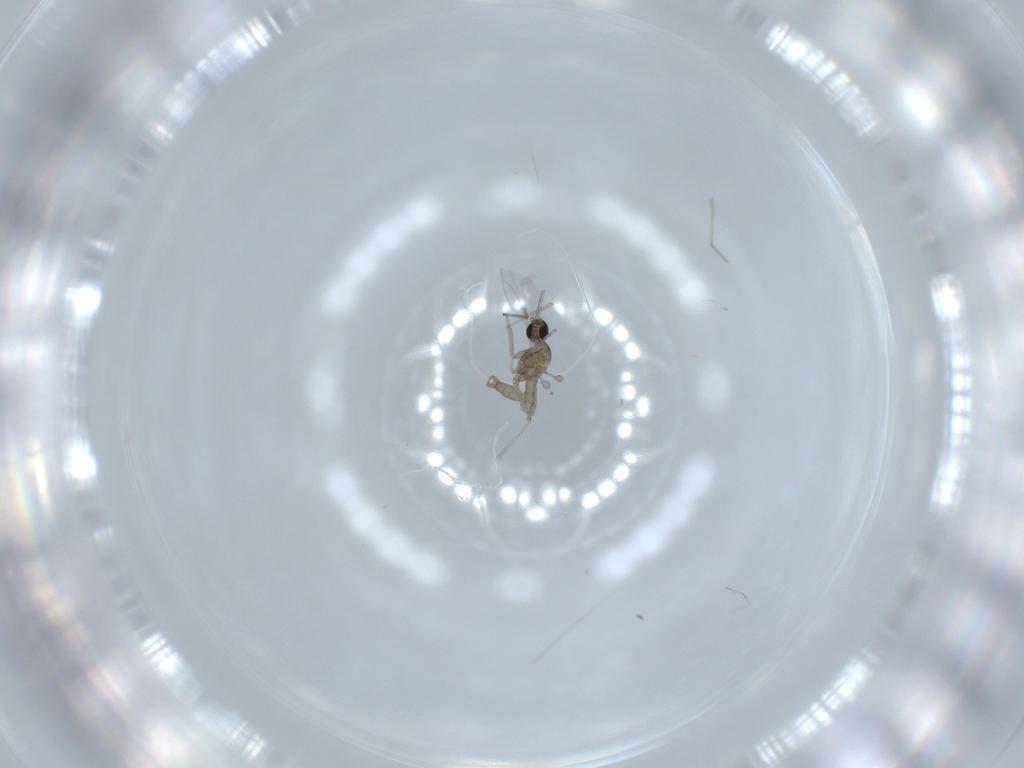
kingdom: Animalia
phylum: Arthropoda
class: Insecta
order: Diptera
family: Cecidomyiidae
